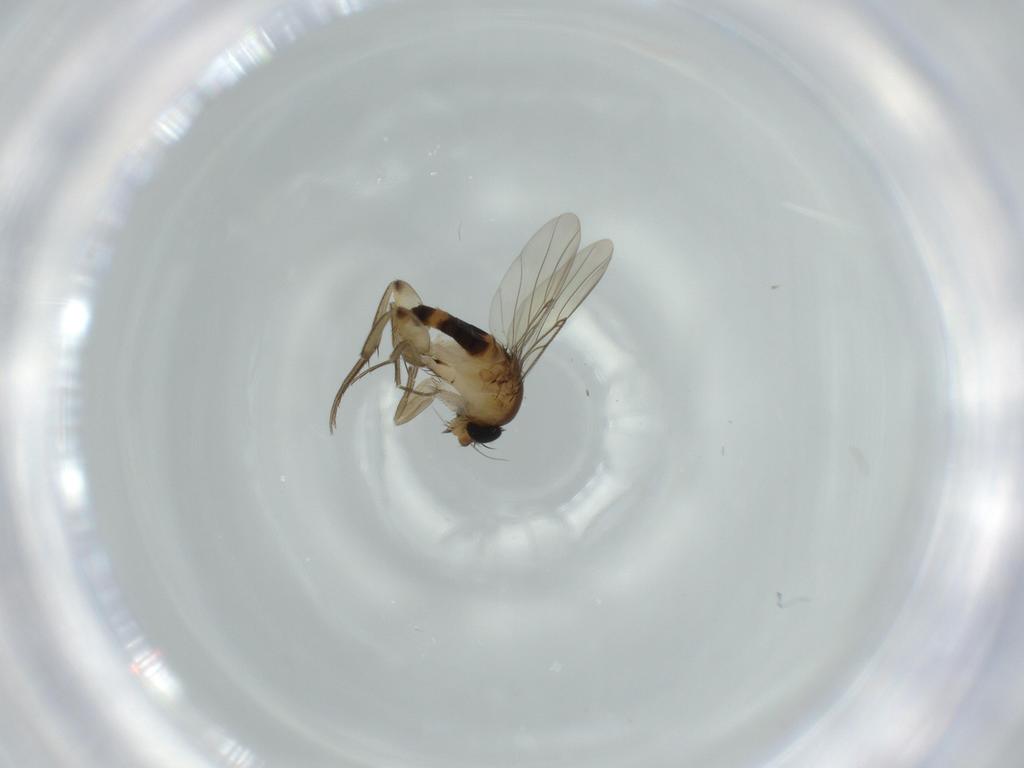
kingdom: Animalia
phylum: Arthropoda
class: Insecta
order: Diptera
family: Phoridae
